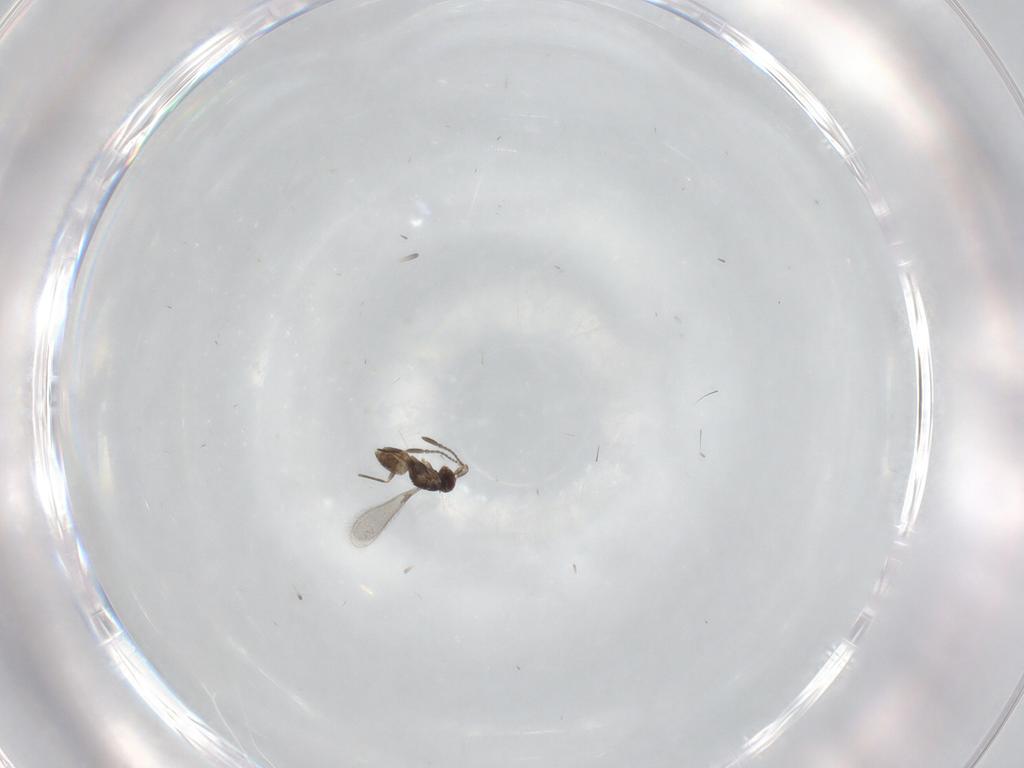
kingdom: Animalia
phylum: Arthropoda
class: Insecta
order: Hymenoptera
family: Mymaridae
